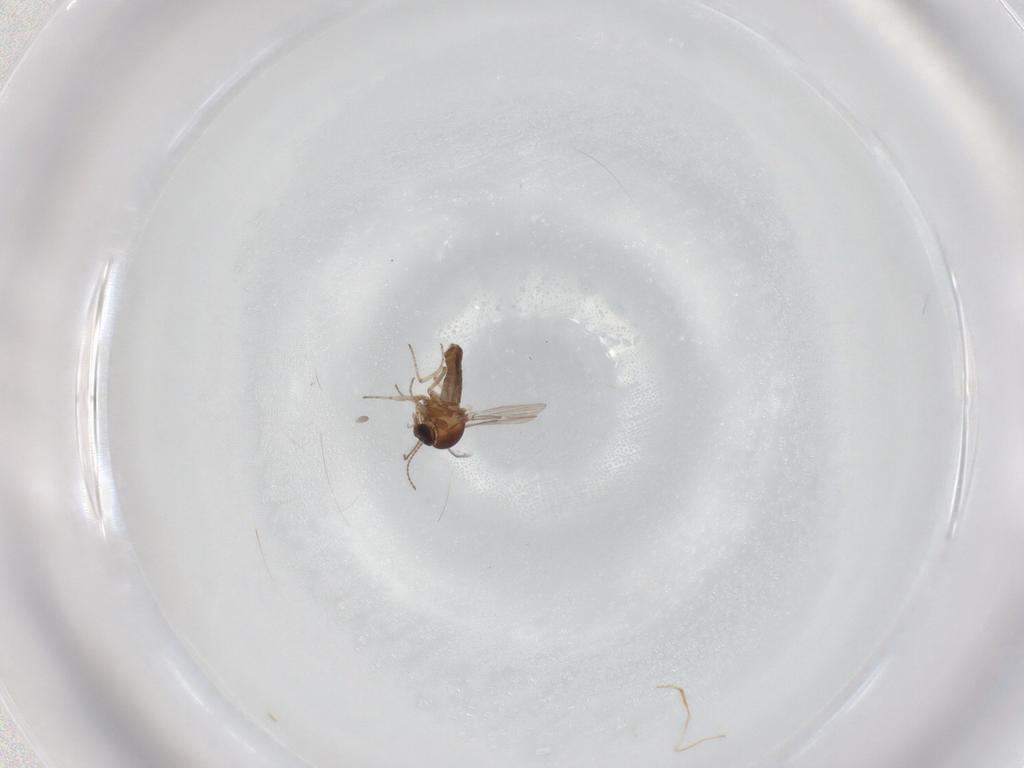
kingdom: Animalia
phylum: Arthropoda
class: Insecta
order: Diptera
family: Ceratopogonidae
